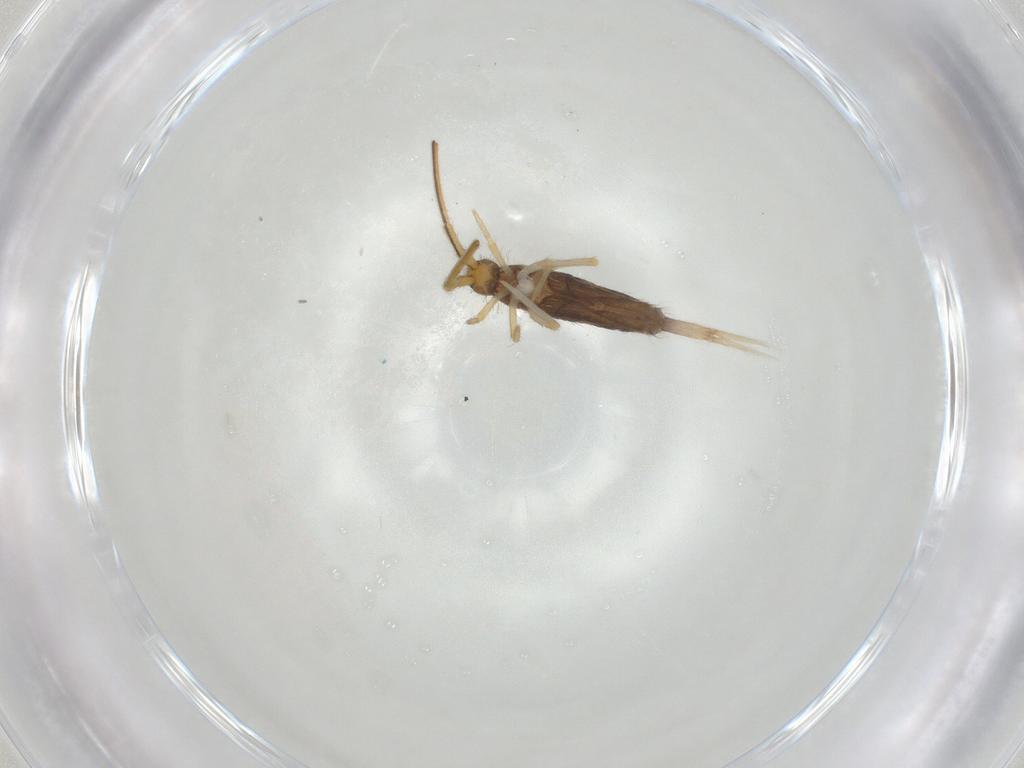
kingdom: Animalia
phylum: Arthropoda
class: Collembola
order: Entomobryomorpha
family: Entomobryidae
